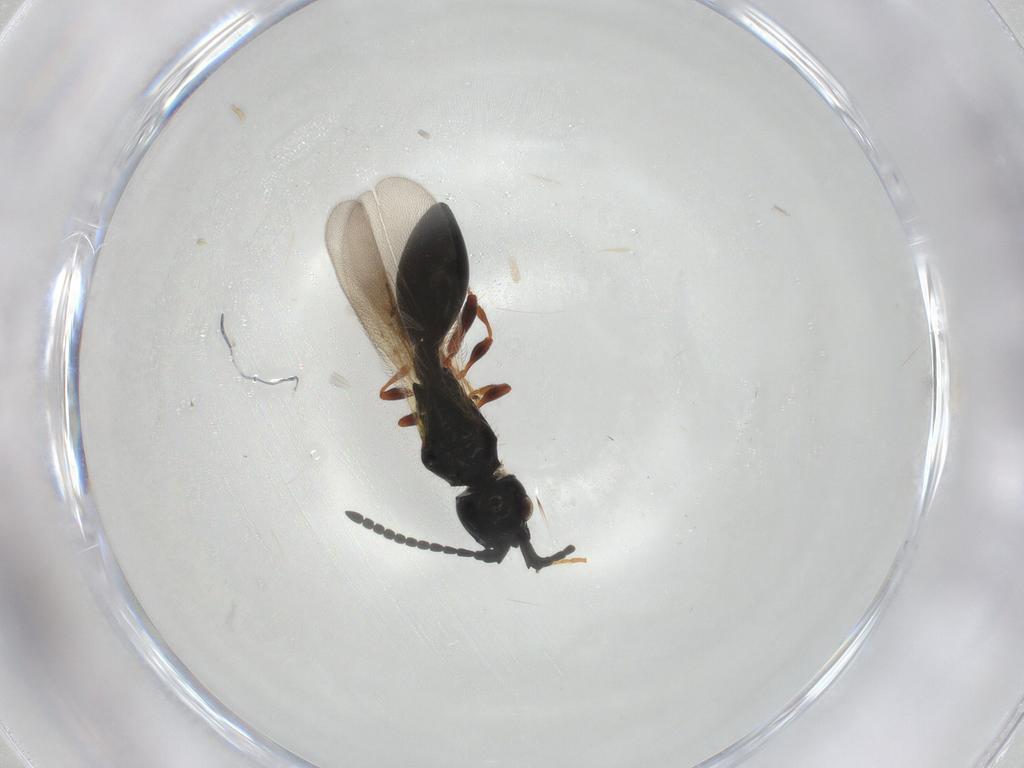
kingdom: Animalia
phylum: Arthropoda
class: Insecta
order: Hymenoptera
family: Diapriidae
